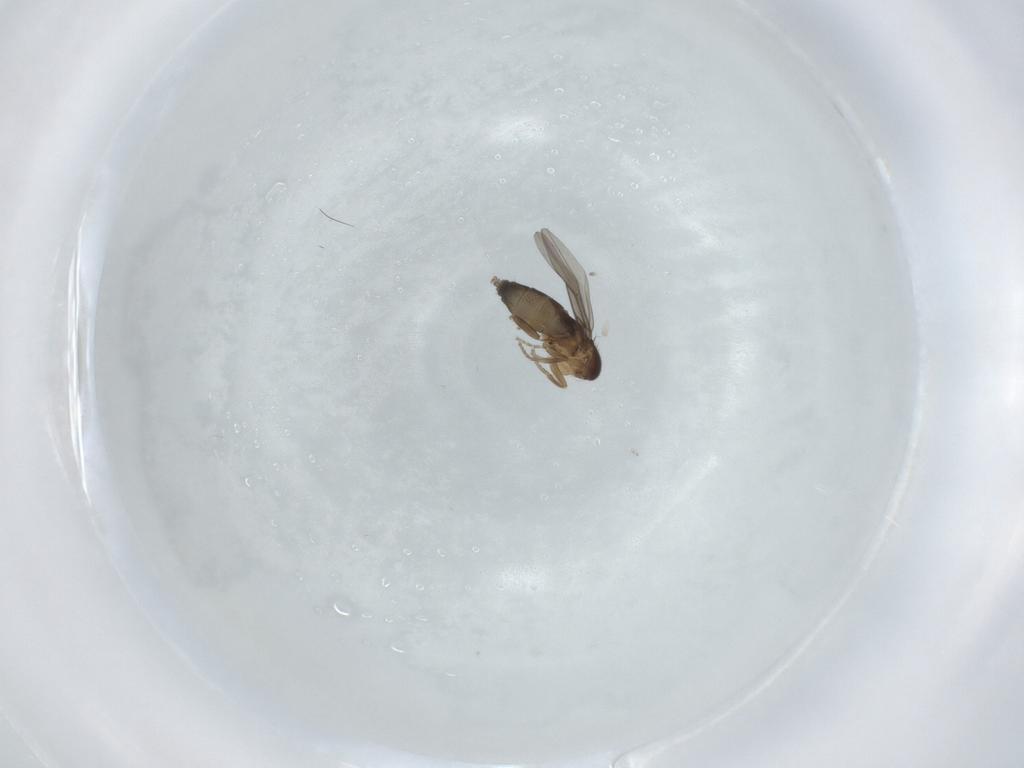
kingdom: Animalia
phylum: Arthropoda
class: Insecta
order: Diptera
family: Phoridae
